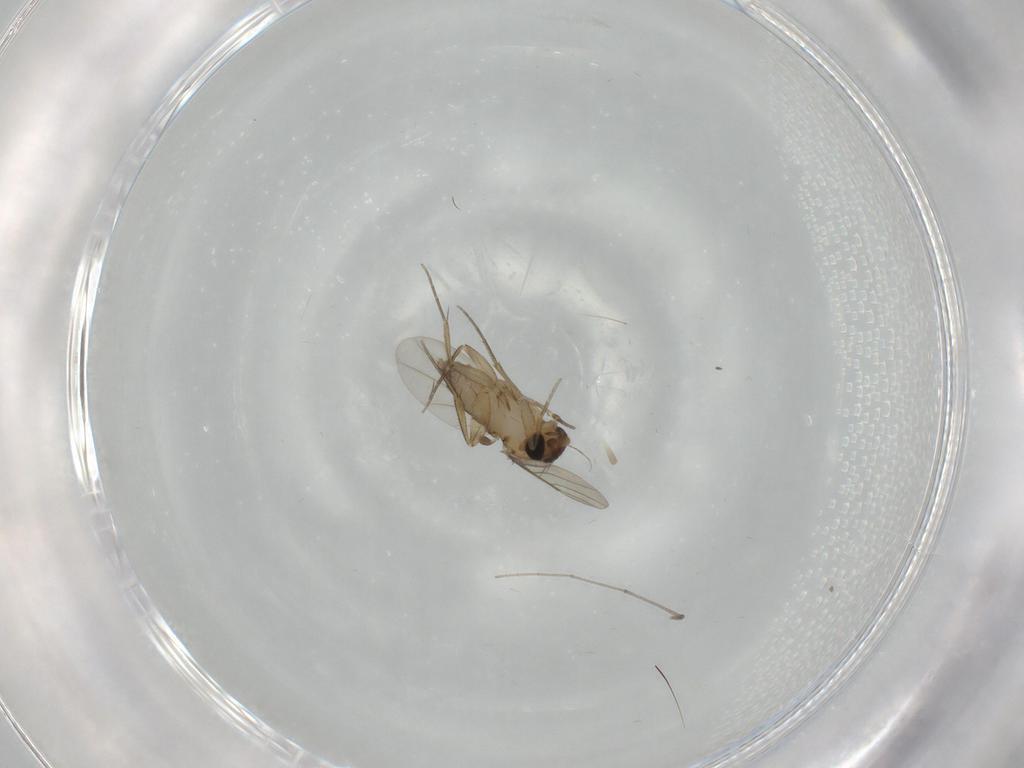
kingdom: Animalia
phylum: Arthropoda
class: Insecta
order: Diptera
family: Phoridae
